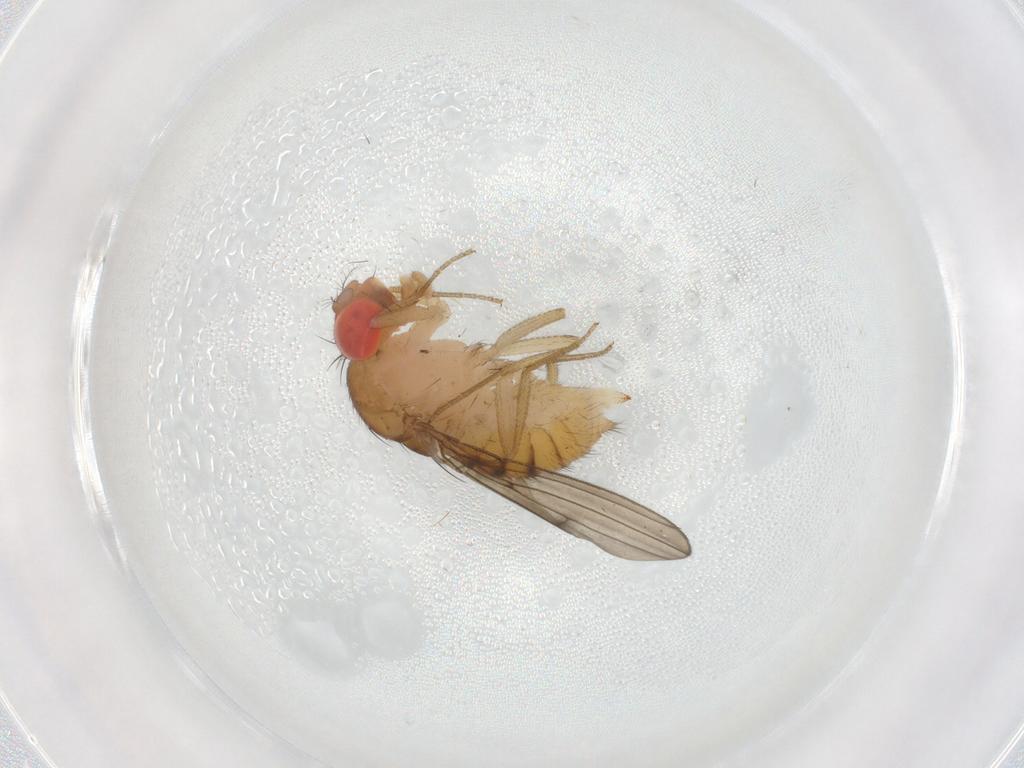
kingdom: Animalia
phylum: Arthropoda
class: Insecta
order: Diptera
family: Drosophilidae
